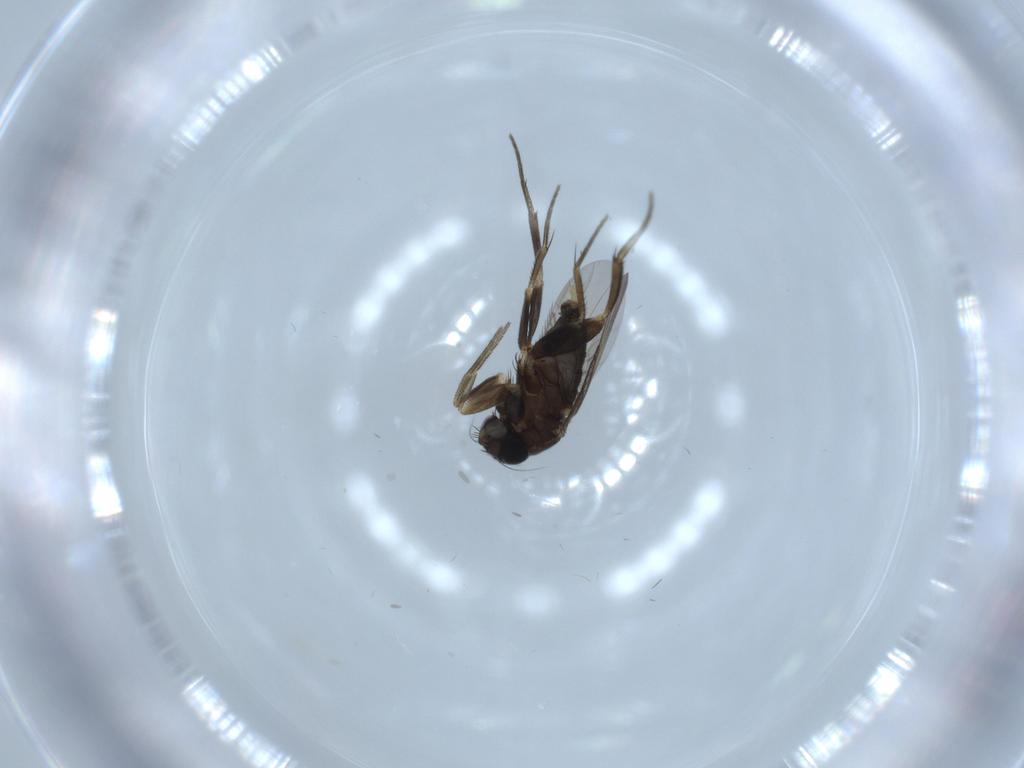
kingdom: Animalia
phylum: Arthropoda
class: Insecta
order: Diptera
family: Phoridae
